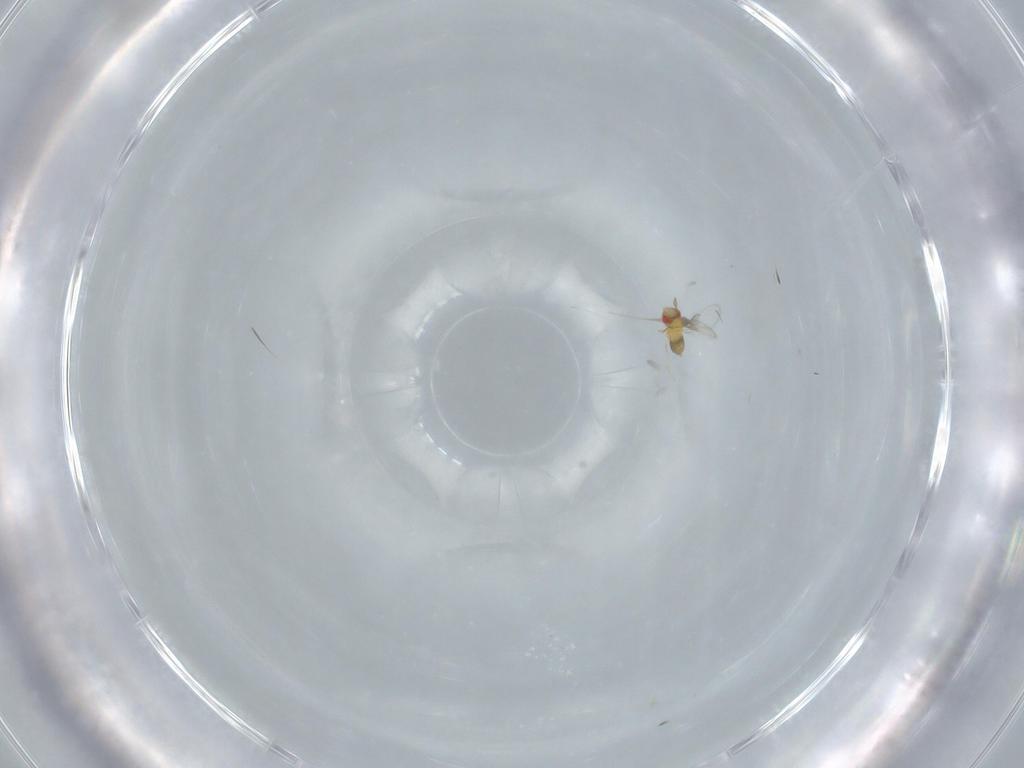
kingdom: Animalia
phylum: Arthropoda
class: Insecta
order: Hymenoptera
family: Trichogrammatidae
